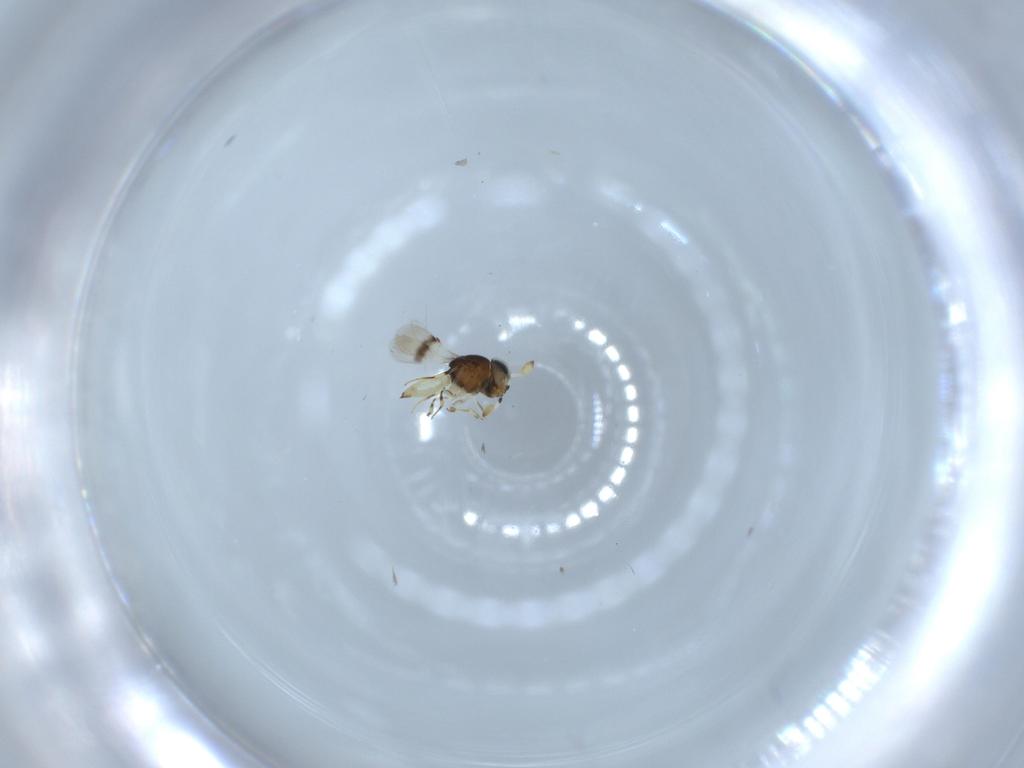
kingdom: Animalia
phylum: Arthropoda
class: Insecta
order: Hymenoptera
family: Scelionidae
